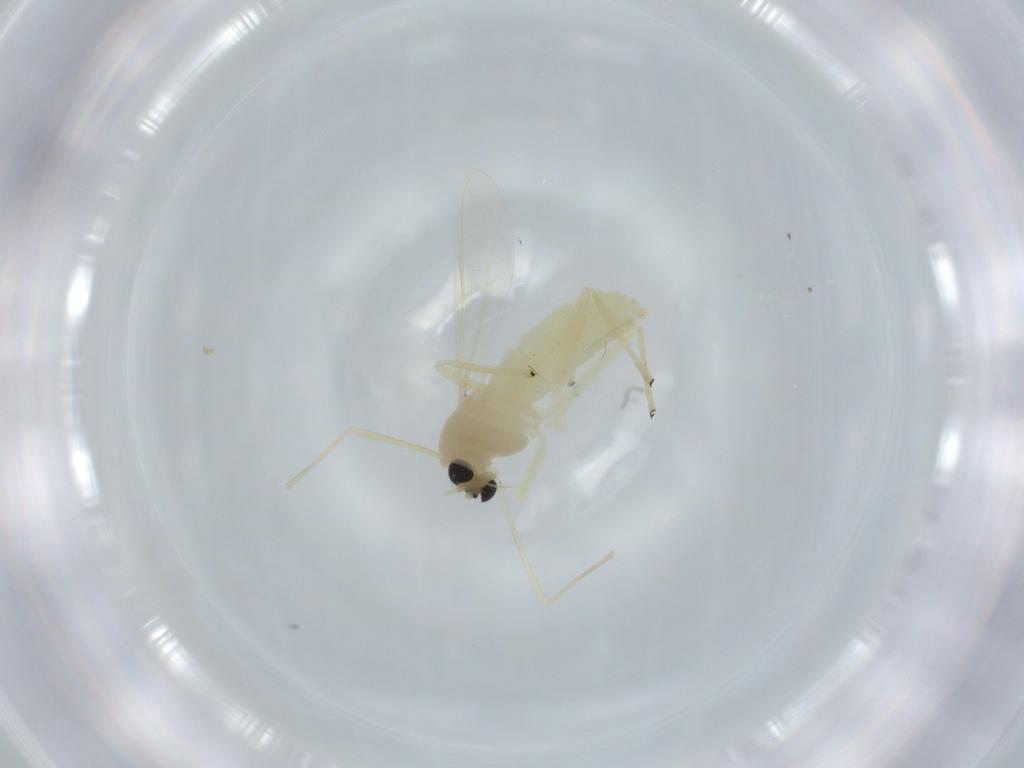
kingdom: Animalia
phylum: Arthropoda
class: Insecta
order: Diptera
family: Chironomidae
